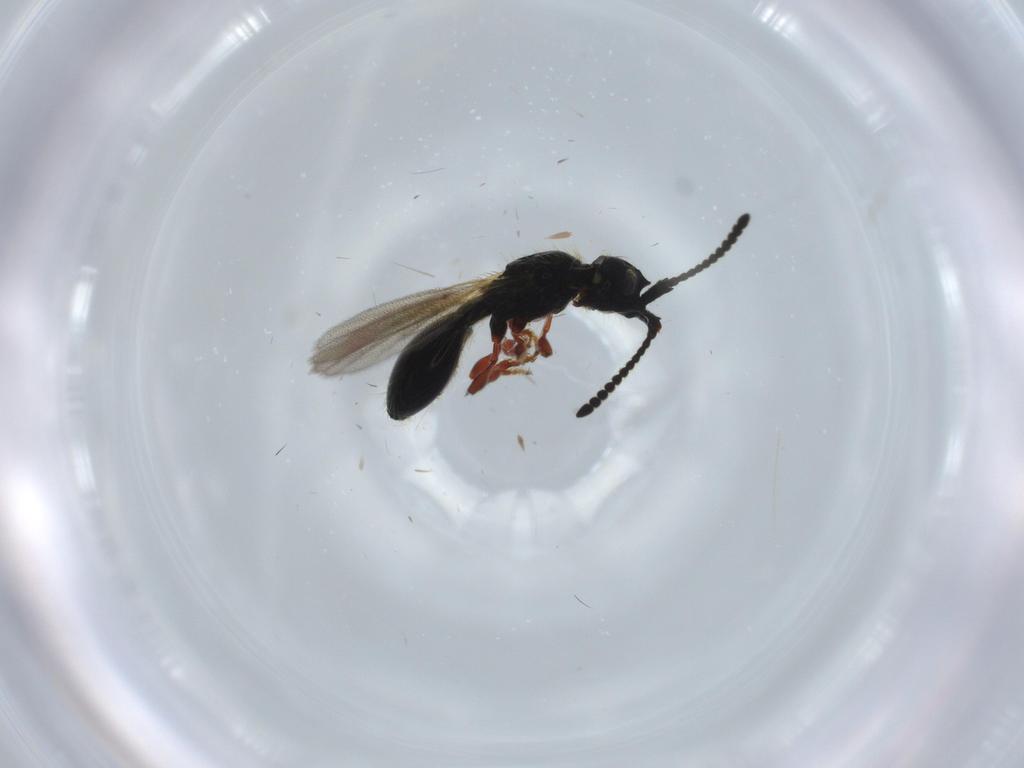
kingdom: Animalia
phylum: Arthropoda
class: Insecta
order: Hymenoptera
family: Diapriidae
